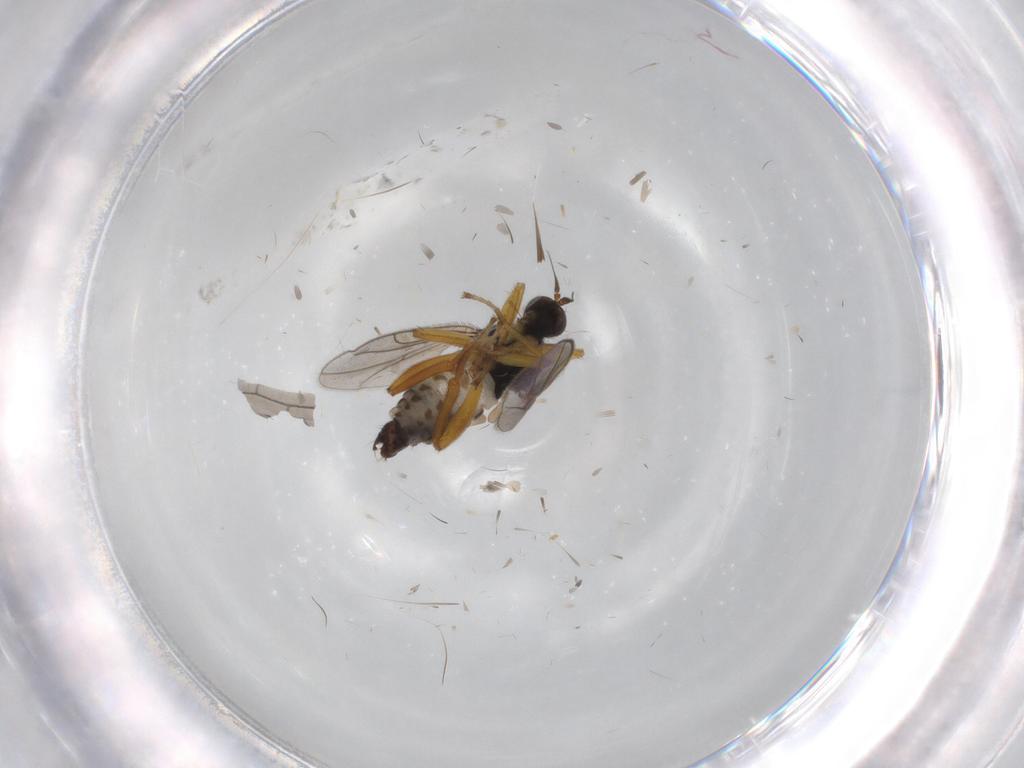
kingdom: Animalia
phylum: Arthropoda
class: Insecta
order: Diptera
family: Hybotidae
